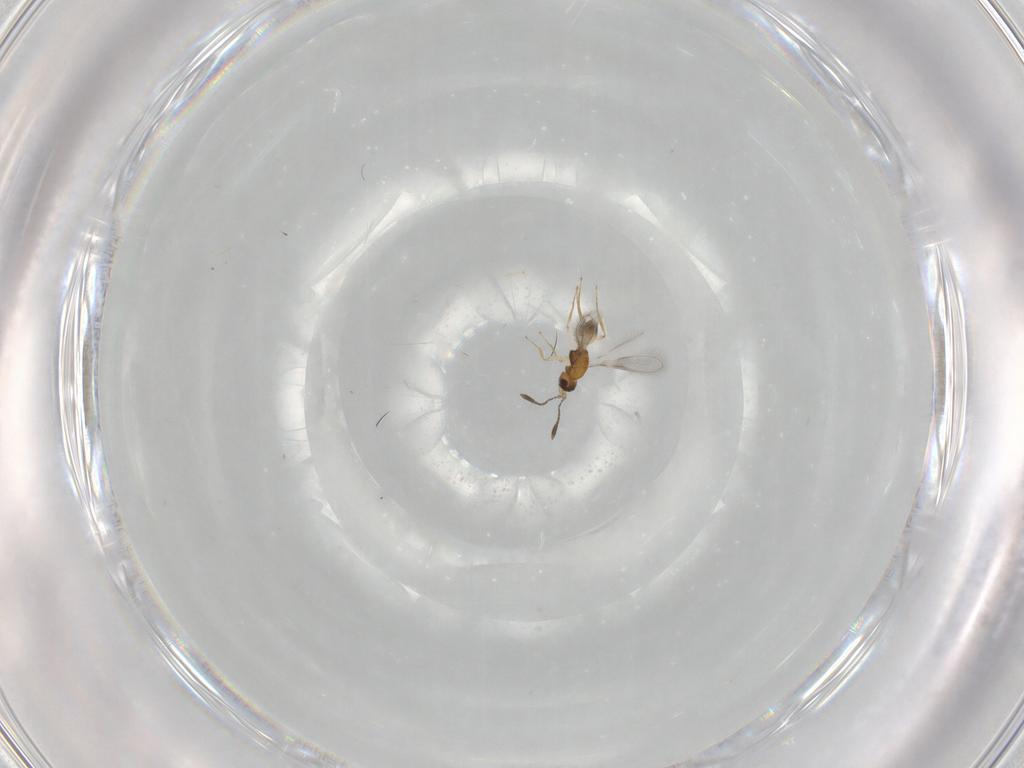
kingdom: Animalia
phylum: Arthropoda
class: Insecta
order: Hymenoptera
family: Mymaridae
